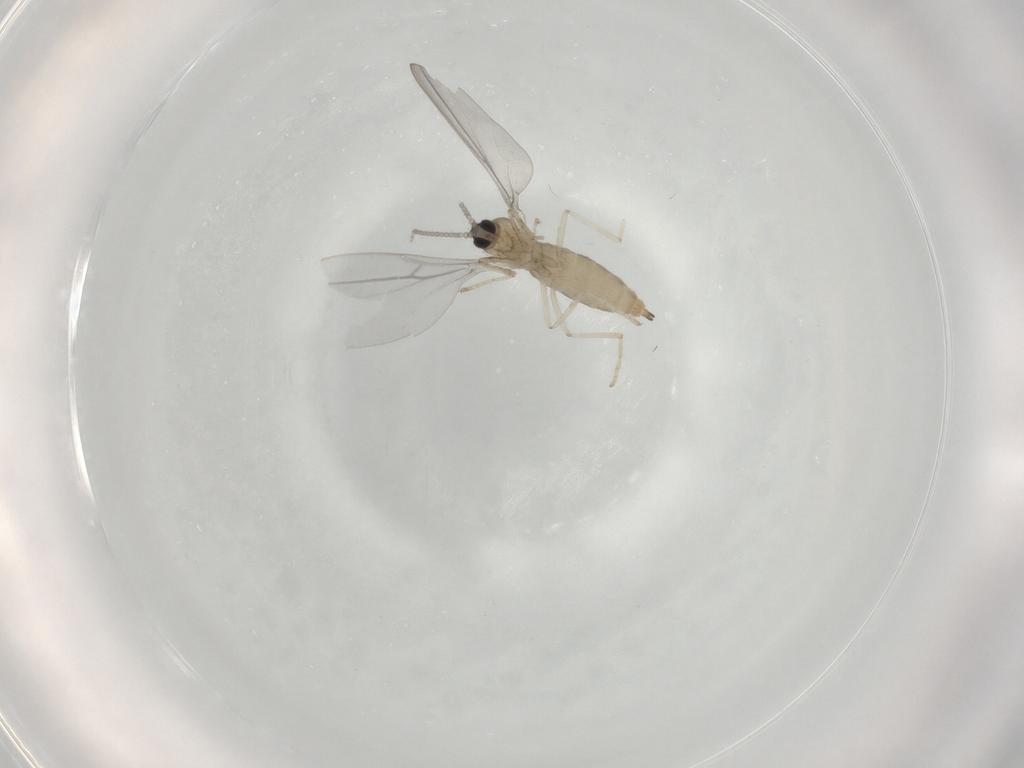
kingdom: Animalia
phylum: Arthropoda
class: Insecta
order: Diptera
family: Cecidomyiidae
